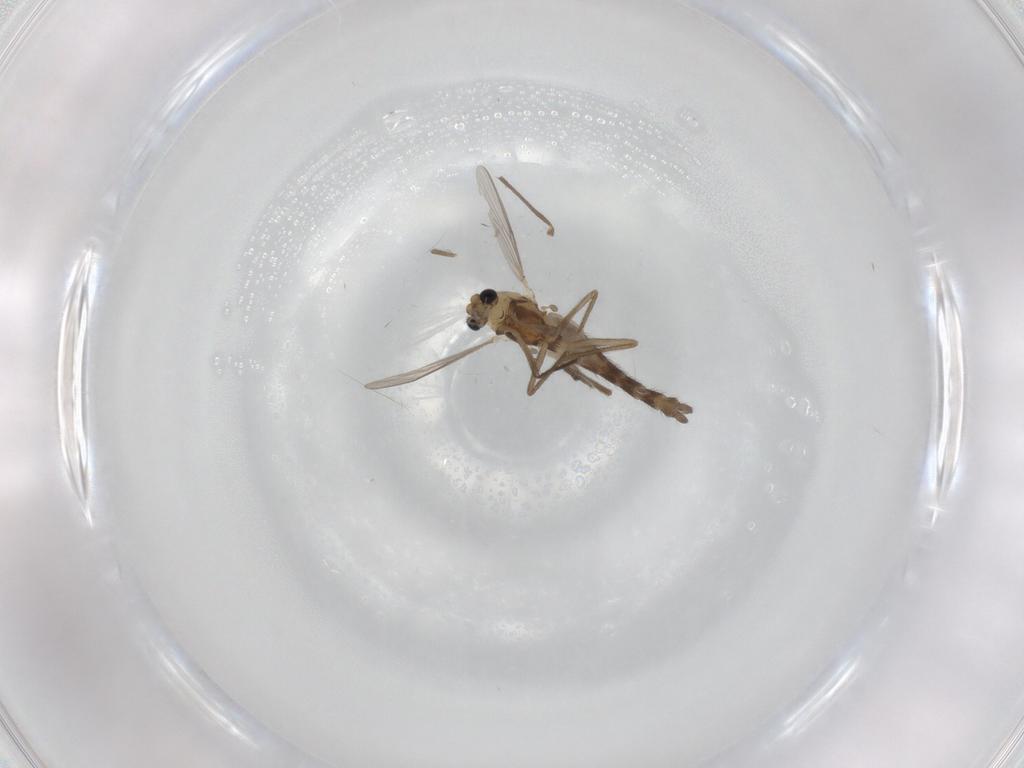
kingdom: Animalia
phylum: Arthropoda
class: Insecta
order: Diptera
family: Chironomidae
